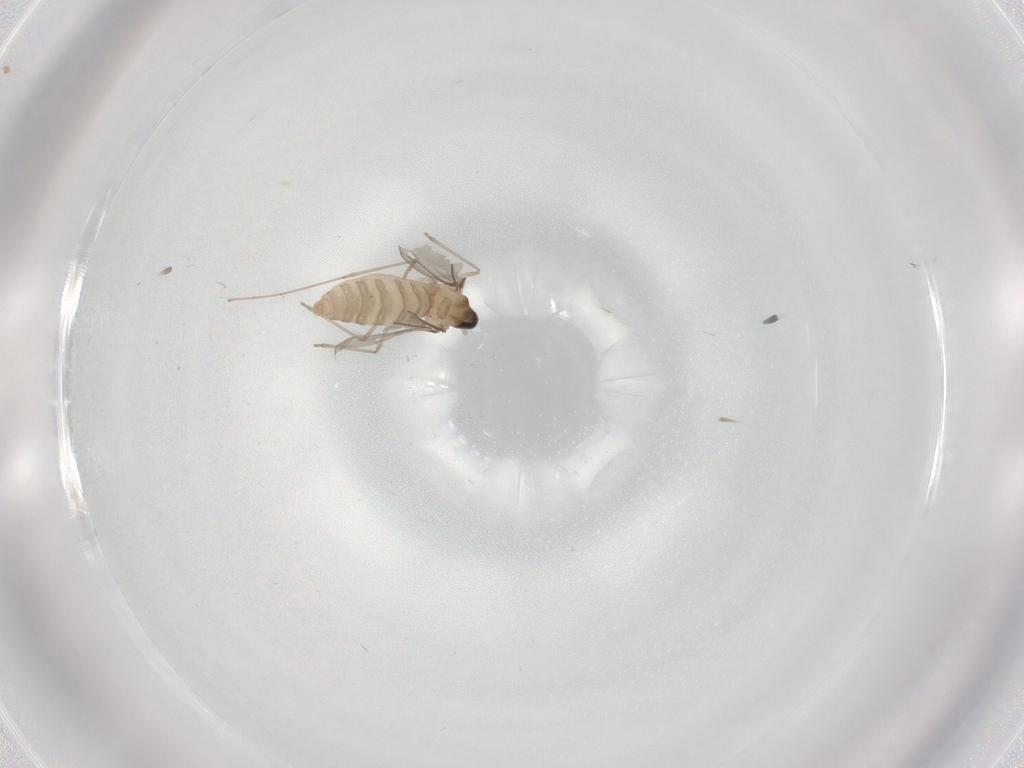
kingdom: Animalia
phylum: Arthropoda
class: Insecta
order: Diptera
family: Cecidomyiidae
